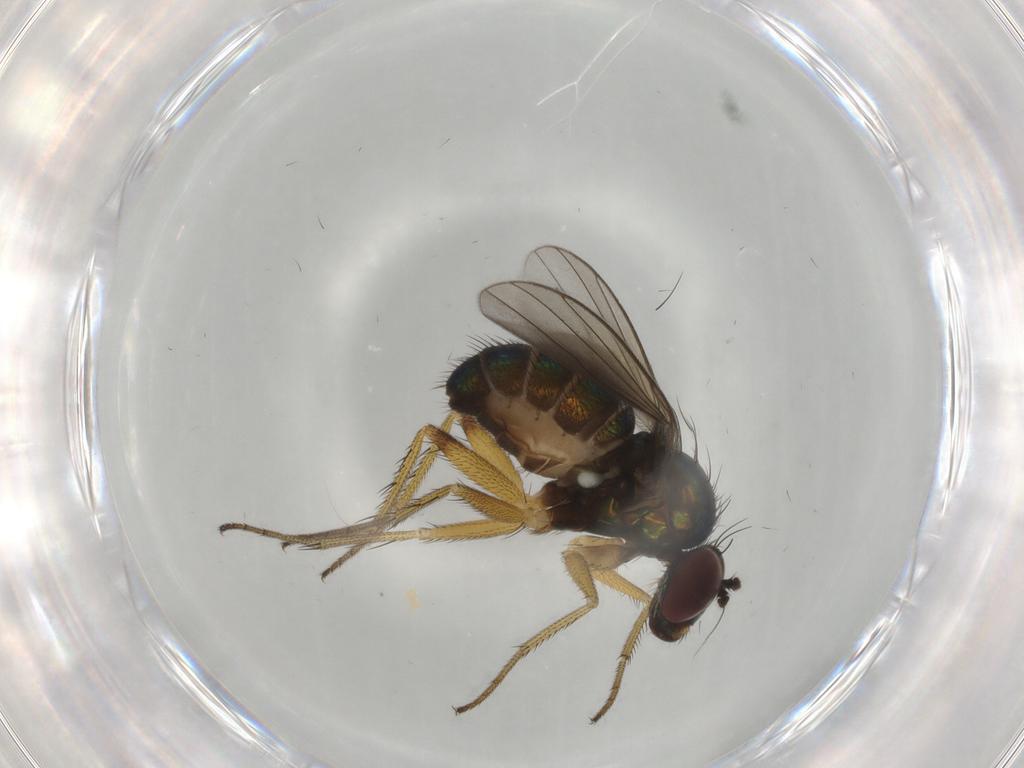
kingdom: Animalia
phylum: Arthropoda
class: Insecta
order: Diptera
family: Dolichopodidae
